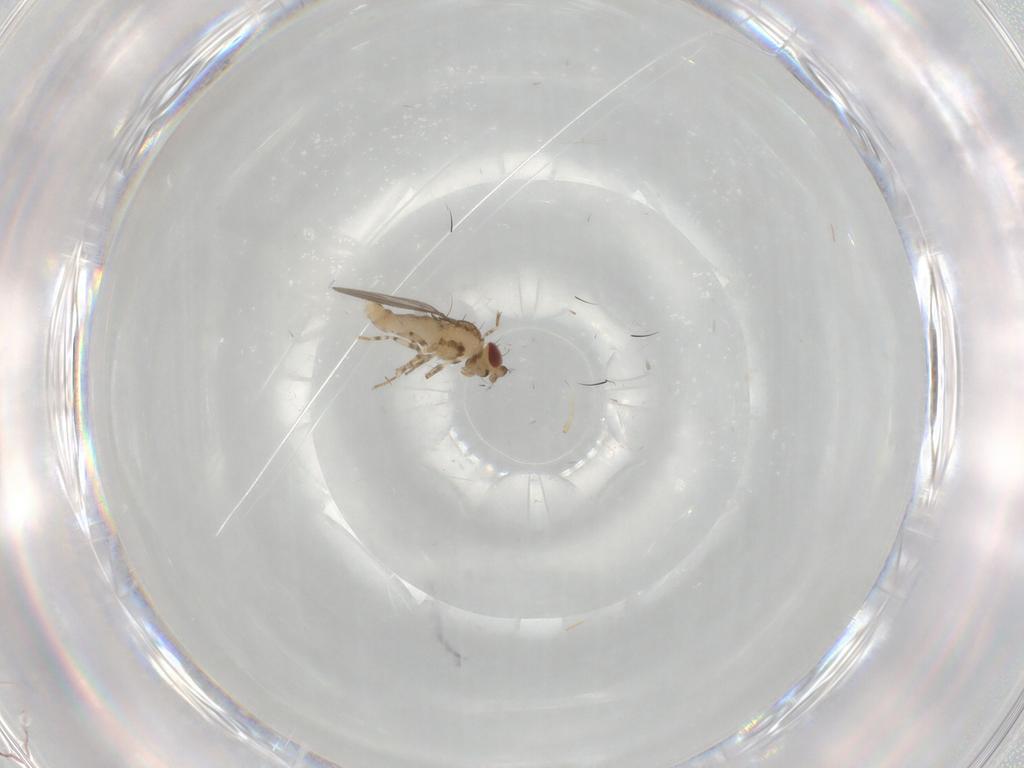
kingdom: Animalia
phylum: Arthropoda
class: Insecta
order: Diptera
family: Asteiidae
